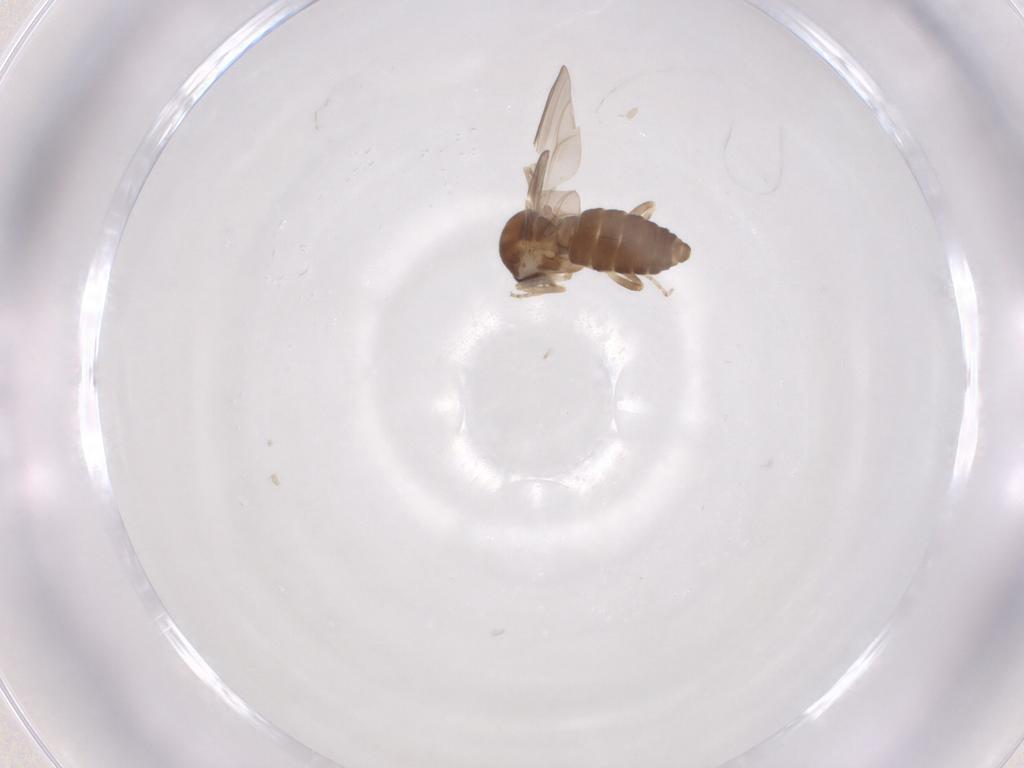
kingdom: Animalia
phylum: Arthropoda
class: Insecta
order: Diptera
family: Ceratopogonidae
